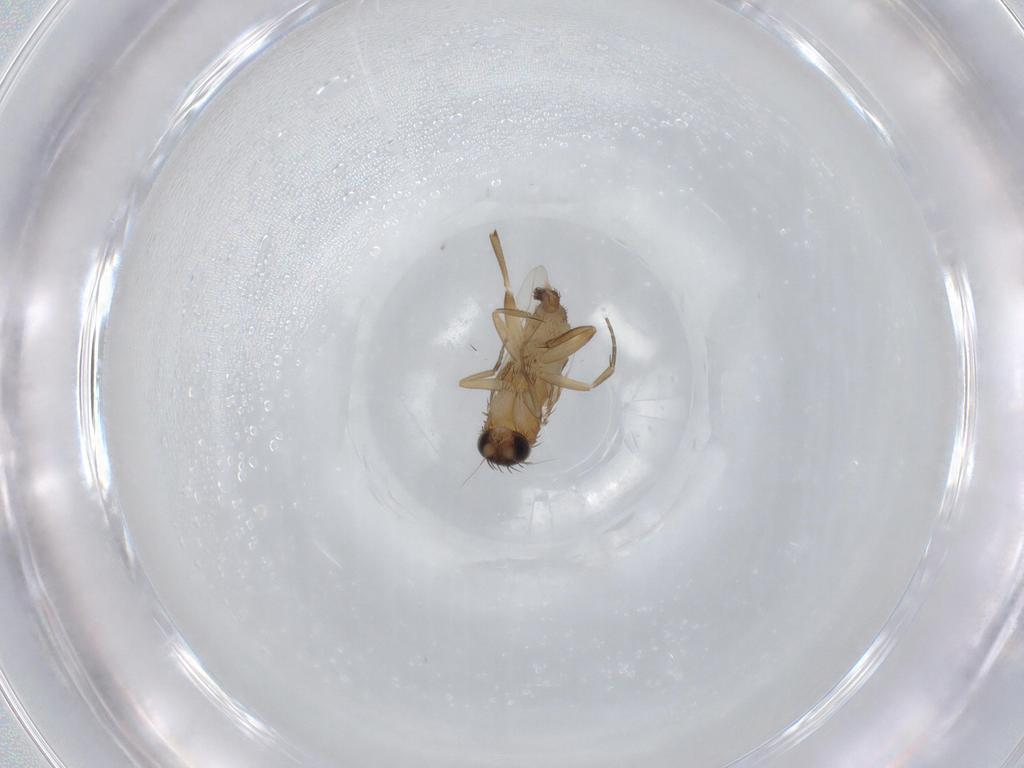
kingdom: Animalia
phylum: Arthropoda
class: Insecta
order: Diptera
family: Phoridae
